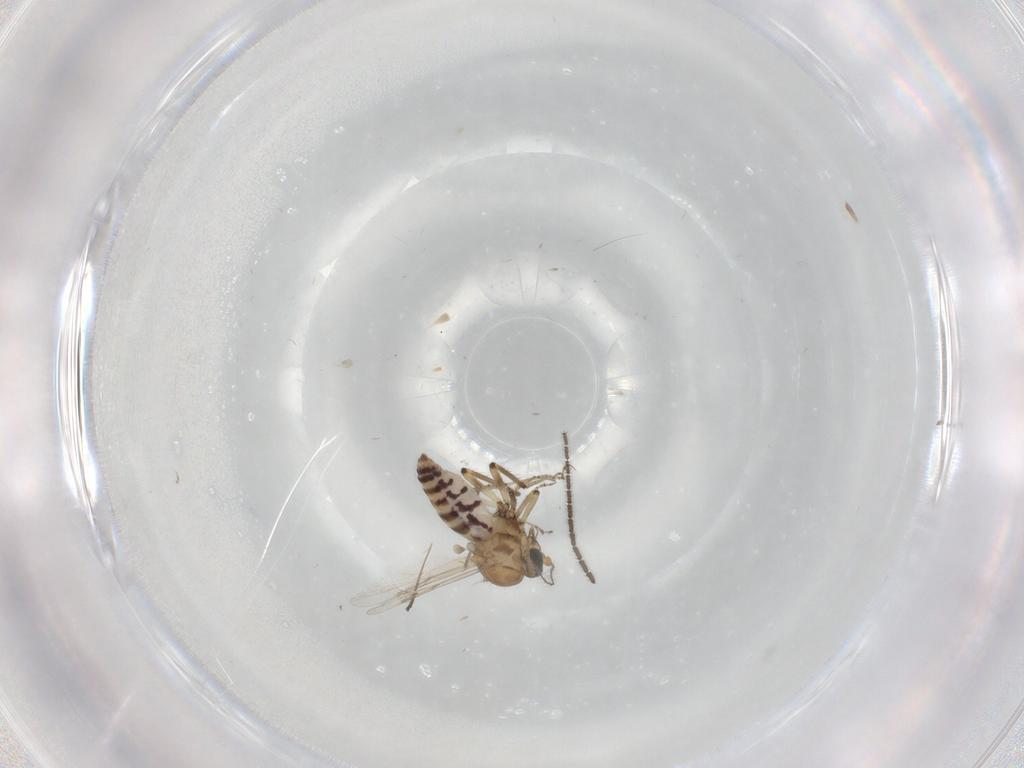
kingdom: Animalia
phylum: Arthropoda
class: Insecta
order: Diptera
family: Ceratopogonidae
